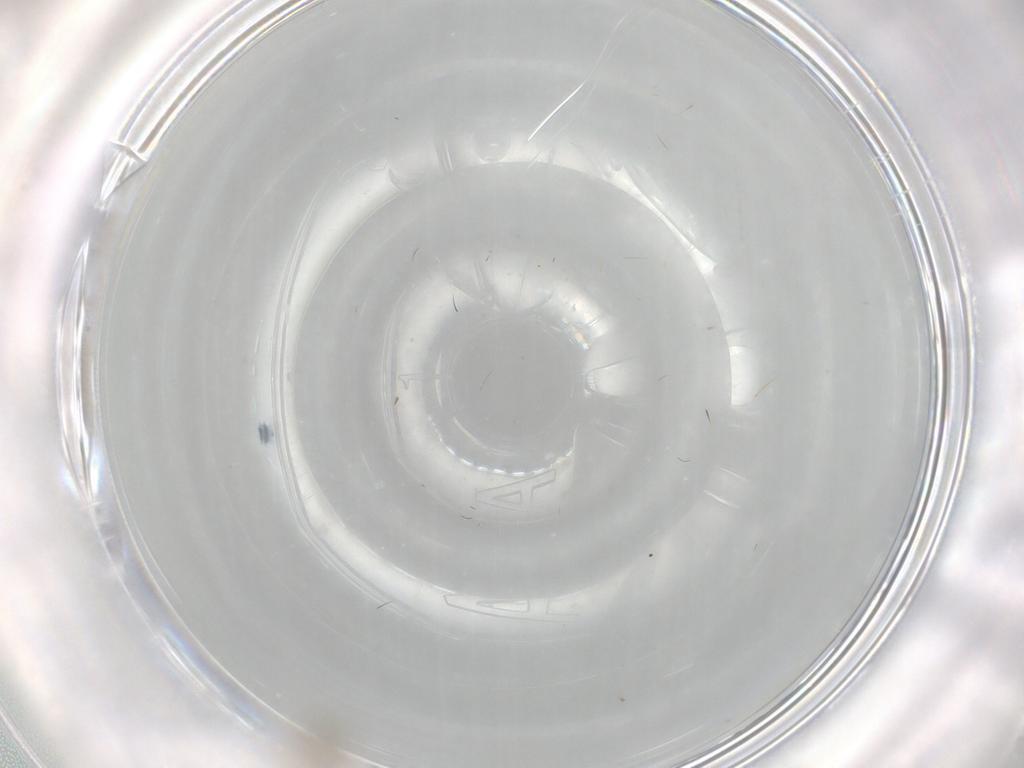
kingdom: Animalia
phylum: Arthropoda
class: Insecta
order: Diptera
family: Cecidomyiidae
